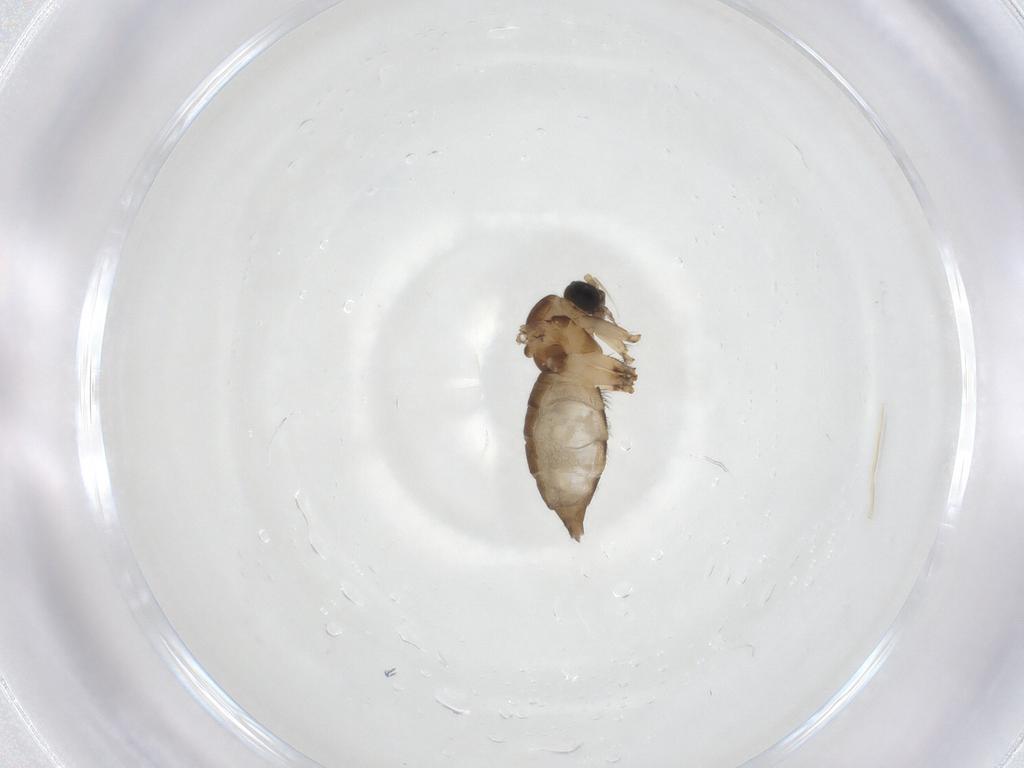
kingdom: Animalia
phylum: Arthropoda
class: Insecta
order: Diptera
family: Sciaridae
